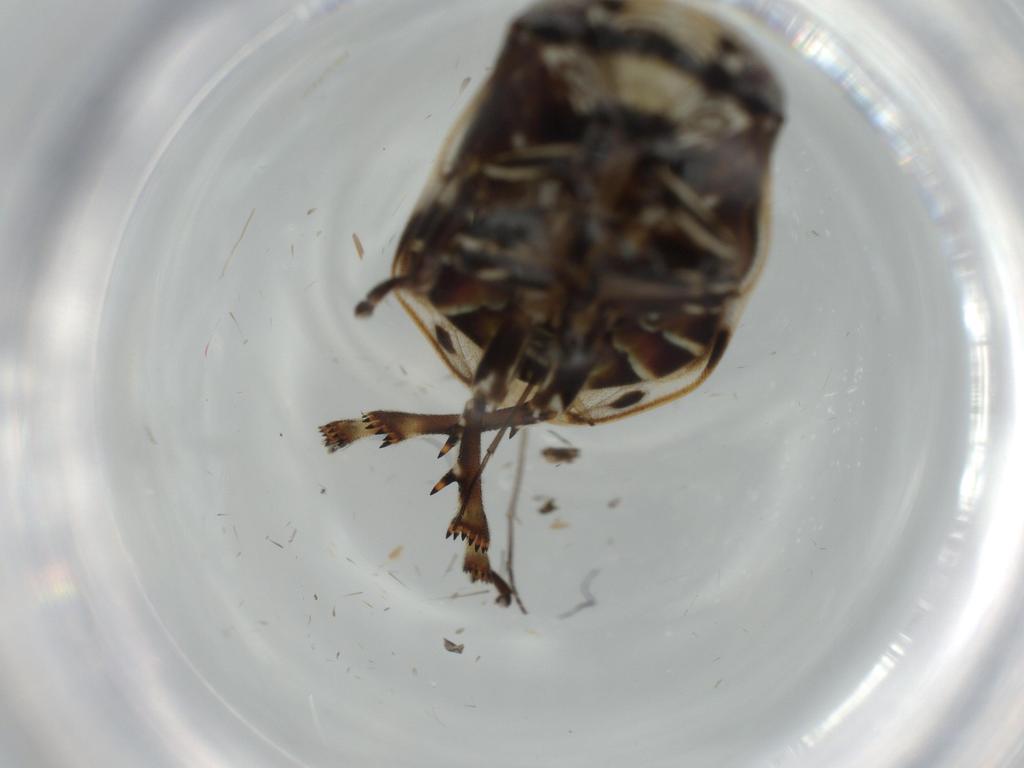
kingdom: Animalia
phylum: Arthropoda
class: Insecta
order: Hemiptera
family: Clastopteridae
